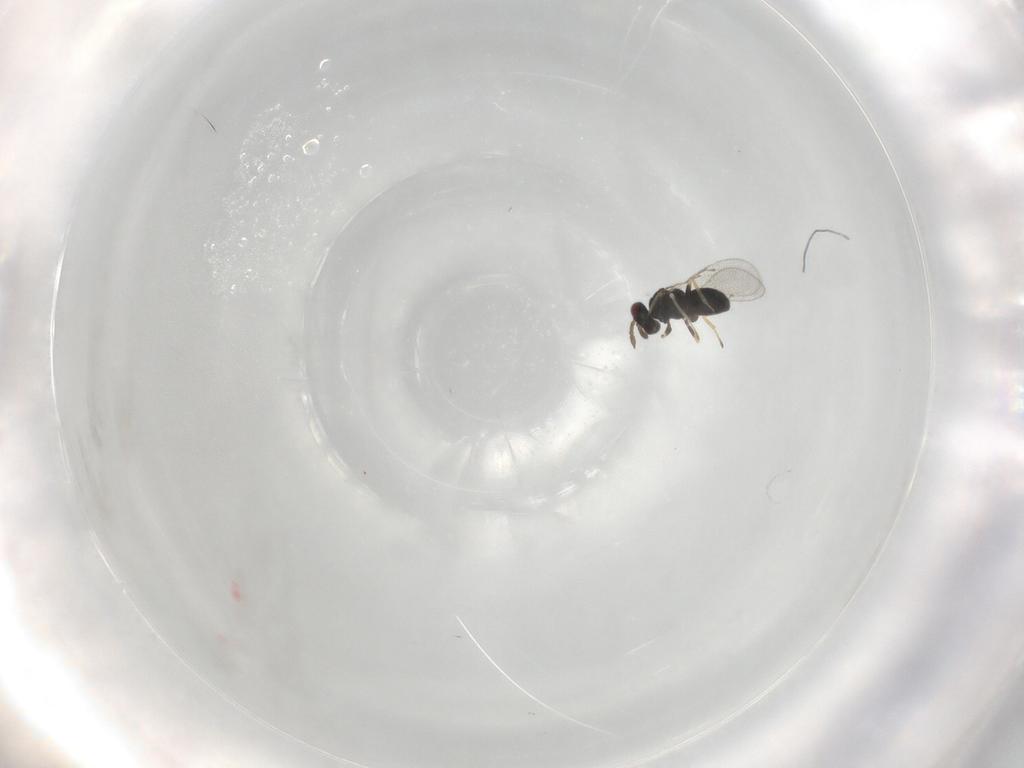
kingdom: Animalia
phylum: Arthropoda
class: Insecta
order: Hymenoptera
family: Eulophidae
